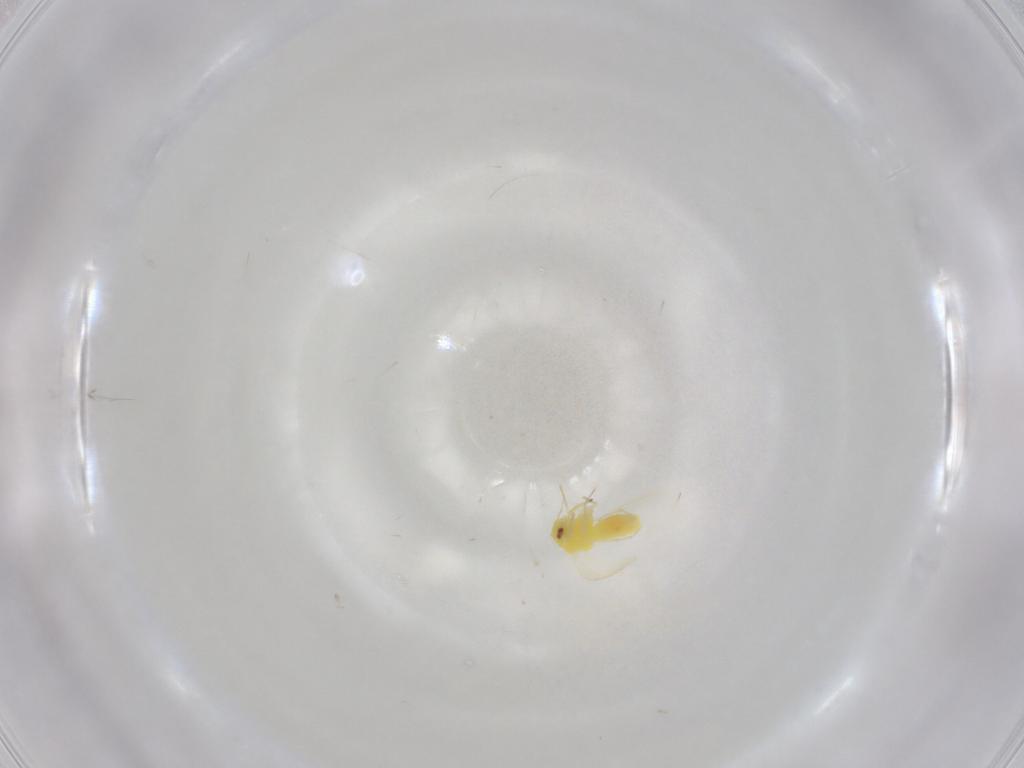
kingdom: Animalia
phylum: Arthropoda
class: Insecta
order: Hemiptera
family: Aleyrodidae
